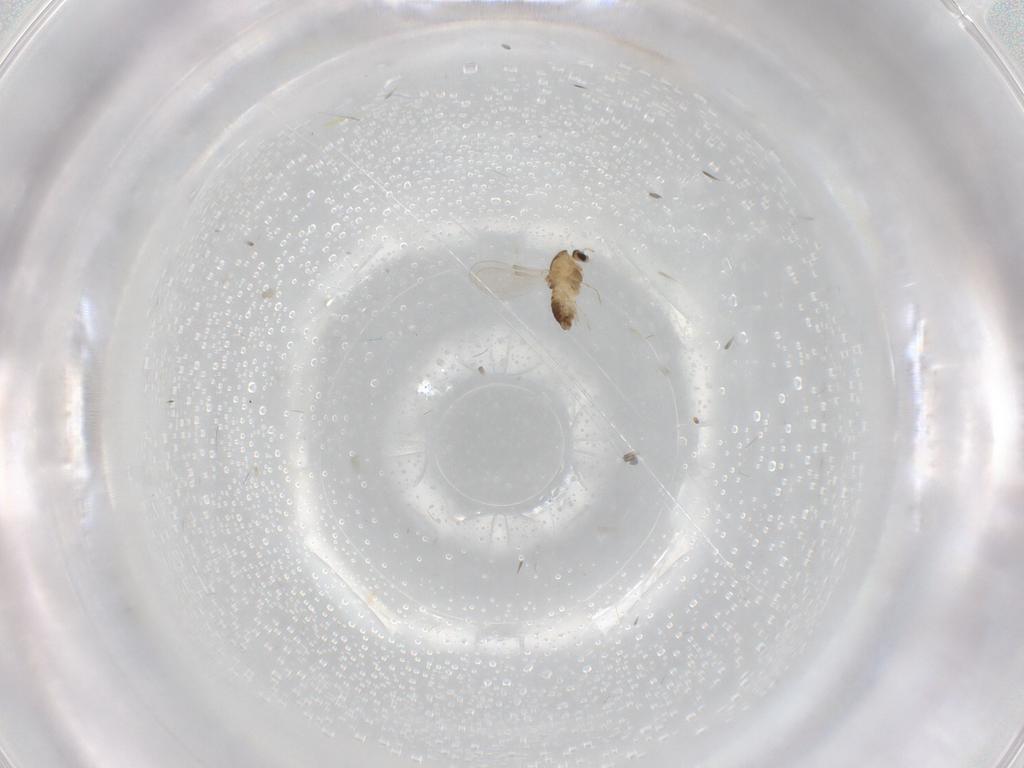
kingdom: Animalia
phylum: Arthropoda
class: Insecta
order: Diptera
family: Chironomidae
